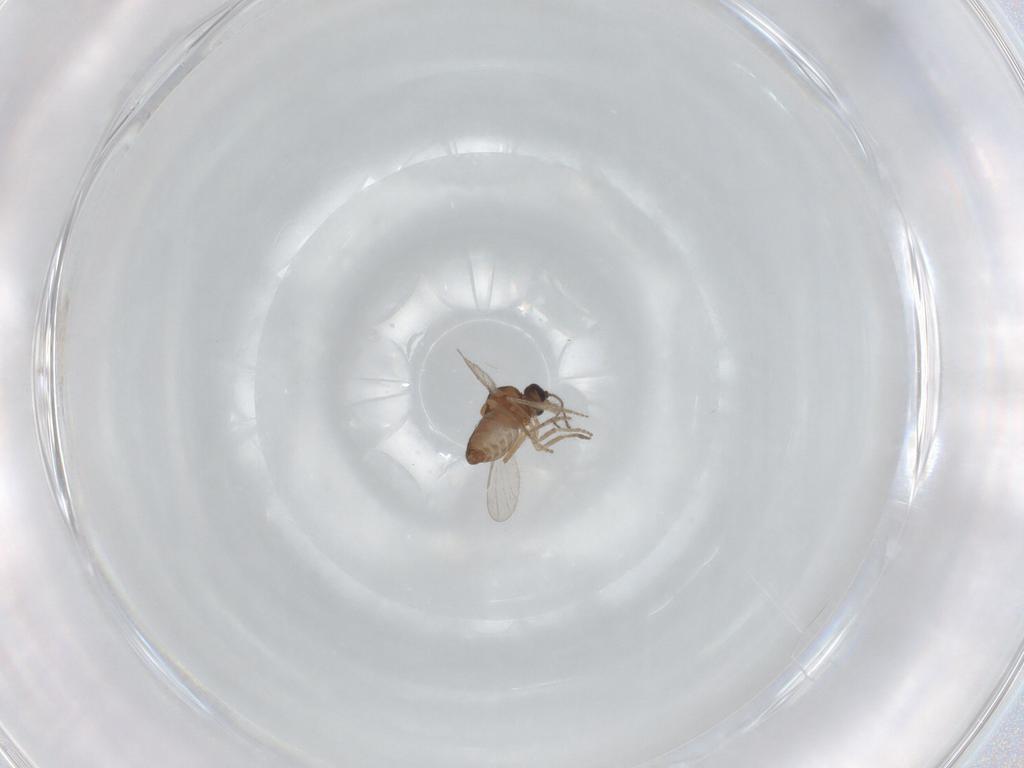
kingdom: Animalia
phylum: Arthropoda
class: Insecta
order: Diptera
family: Ceratopogonidae
